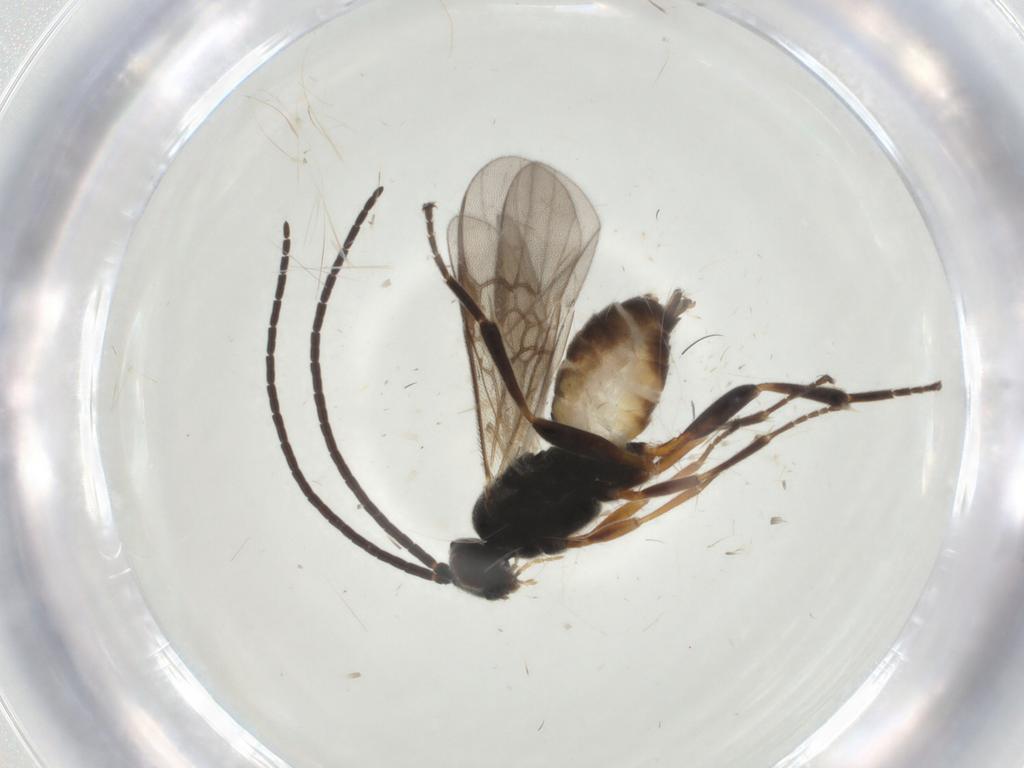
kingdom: Animalia
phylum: Arthropoda
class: Insecta
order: Hymenoptera
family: Braconidae
